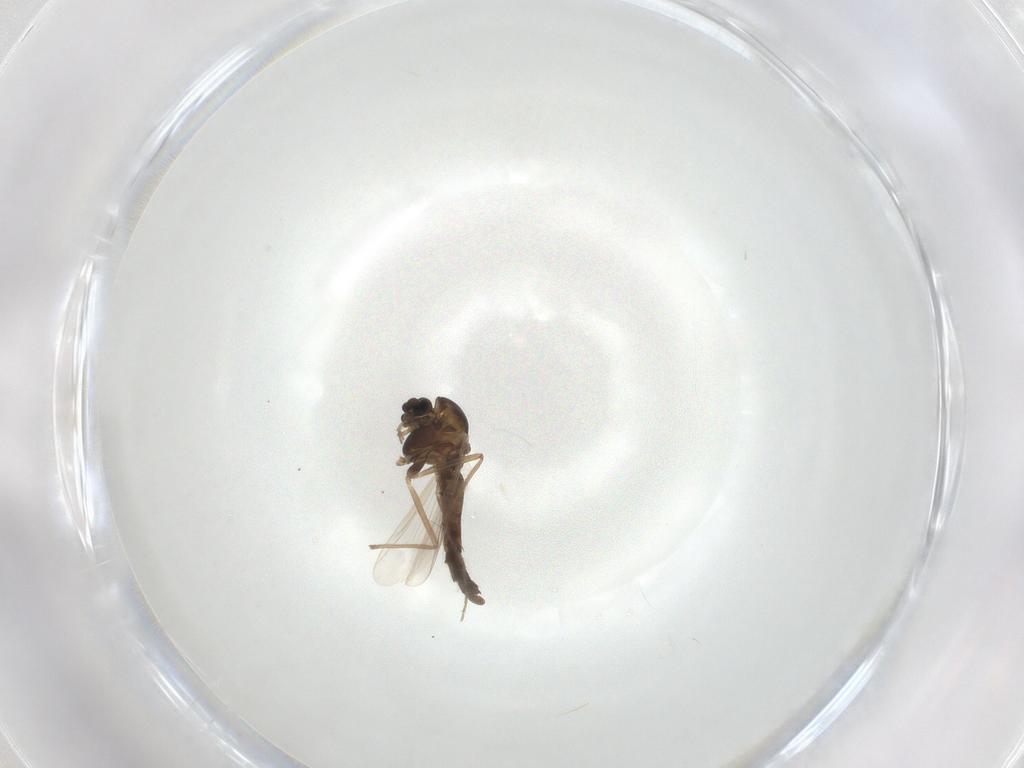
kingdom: Animalia
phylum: Arthropoda
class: Insecta
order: Diptera
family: Chironomidae
